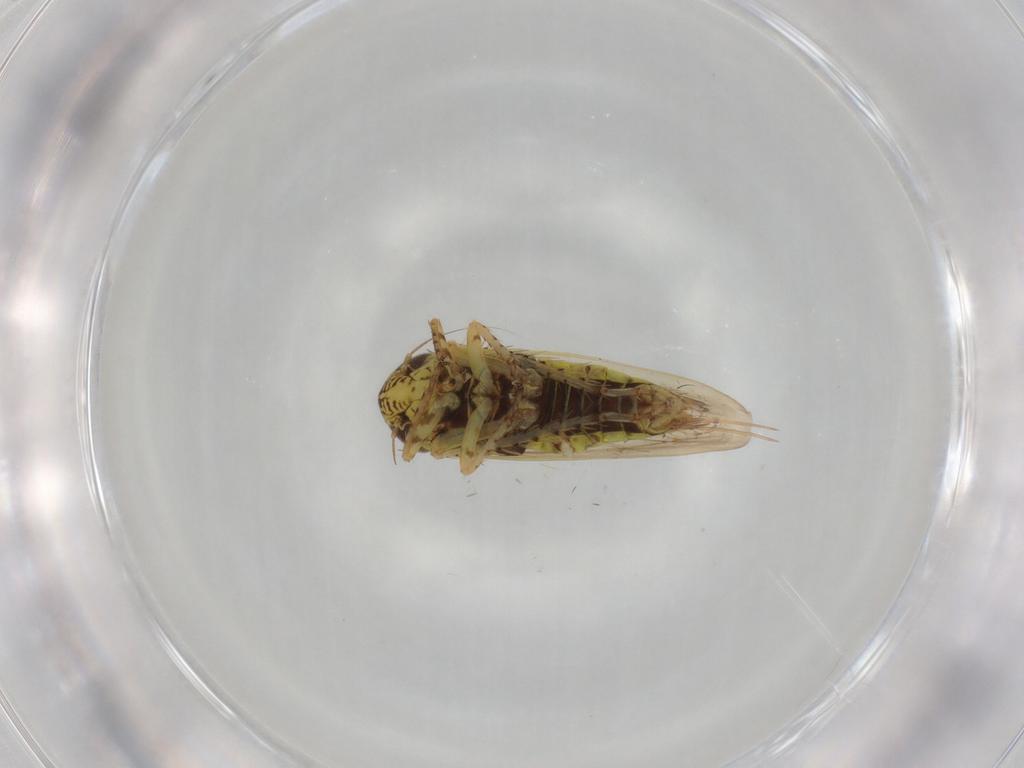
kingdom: Animalia
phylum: Arthropoda
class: Insecta
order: Hemiptera
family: Cicadellidae
